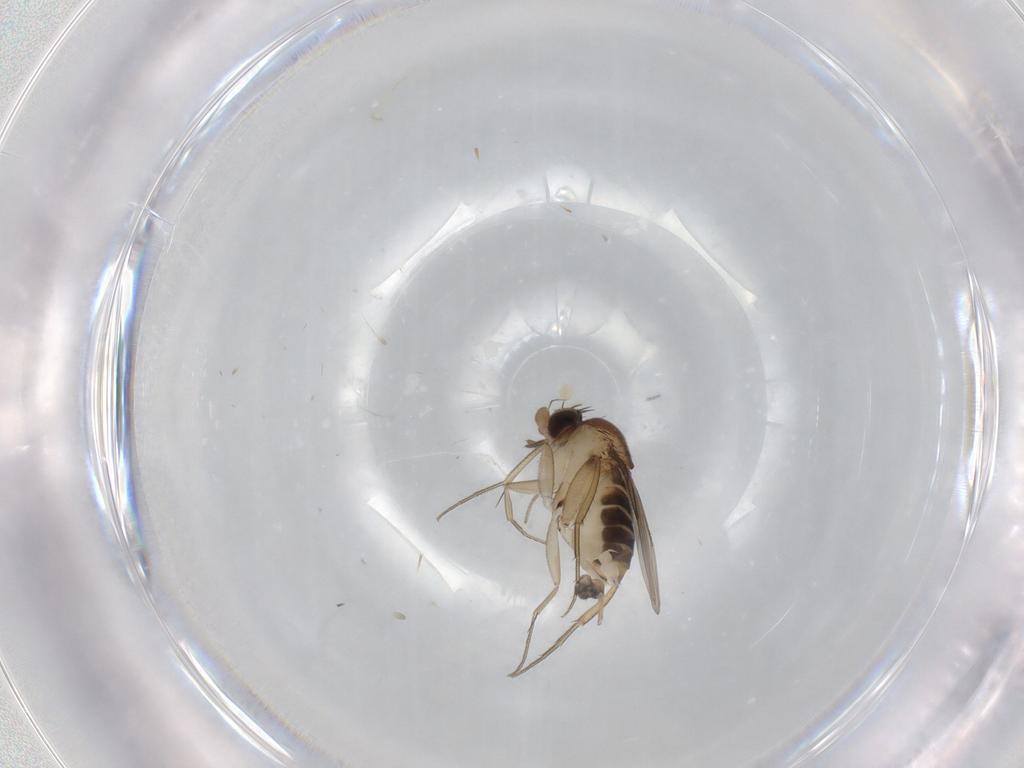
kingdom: Animalia
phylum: Arthropoda
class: Insecta
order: Diptera
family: Phoridae
